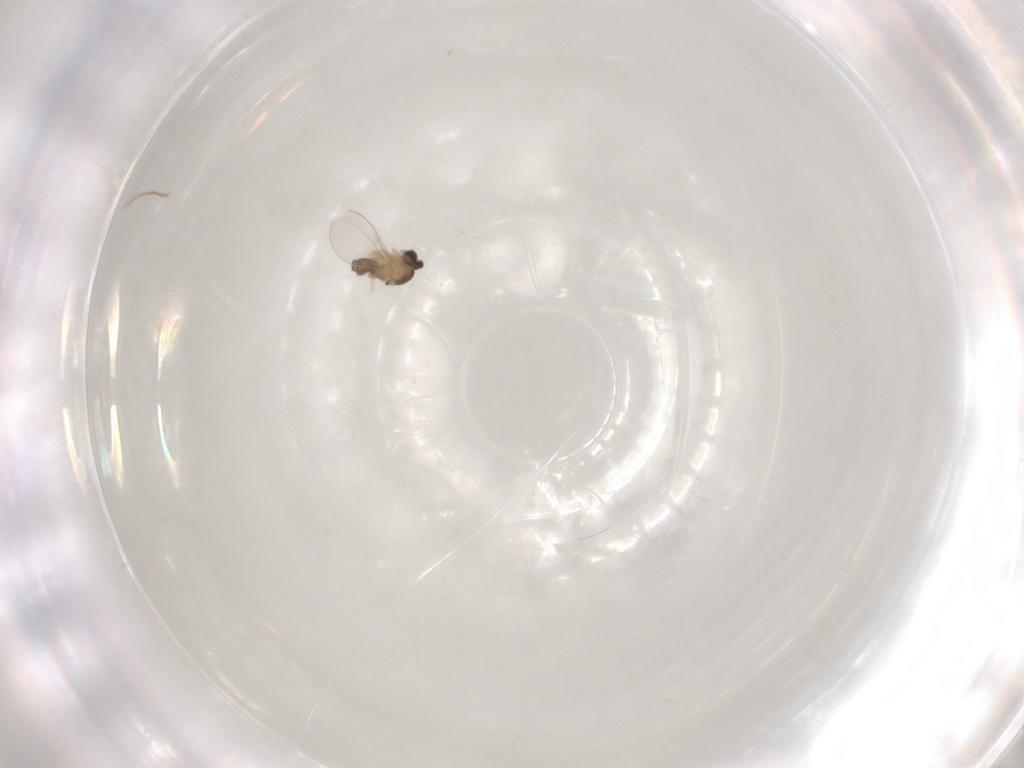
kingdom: Animalia
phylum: Arthropoda
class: Insecta
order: Diptera
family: Cecidomyiidae
